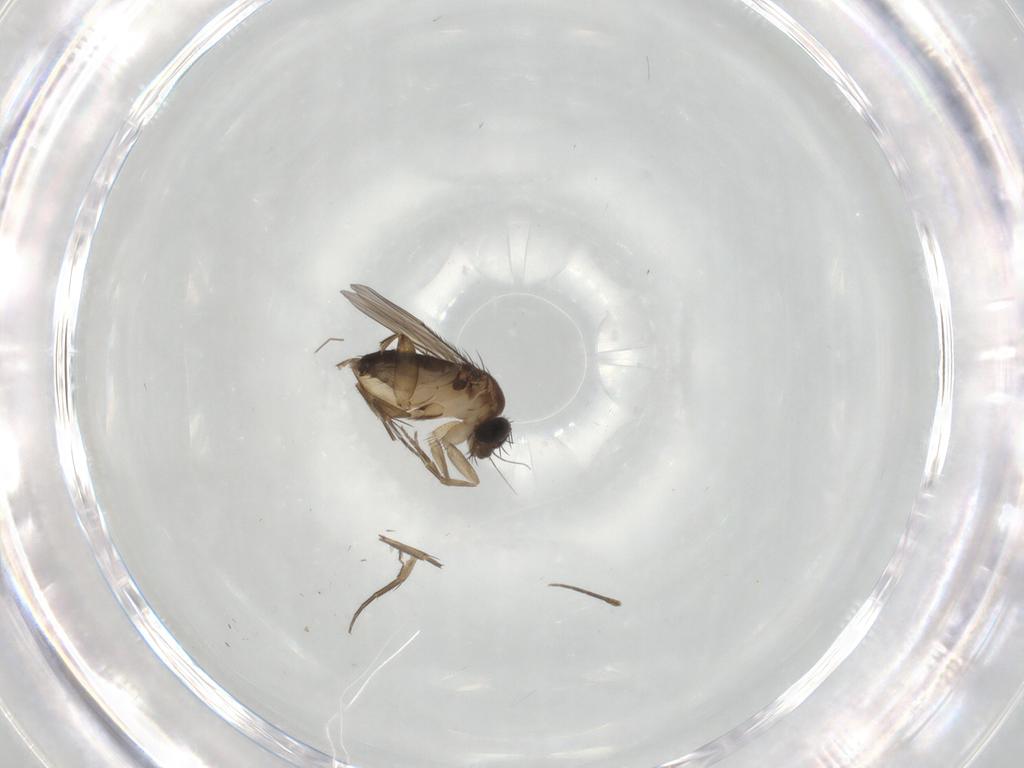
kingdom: Animalia
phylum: Arthropoda
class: Insecta
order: Diptera
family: Phoridae
